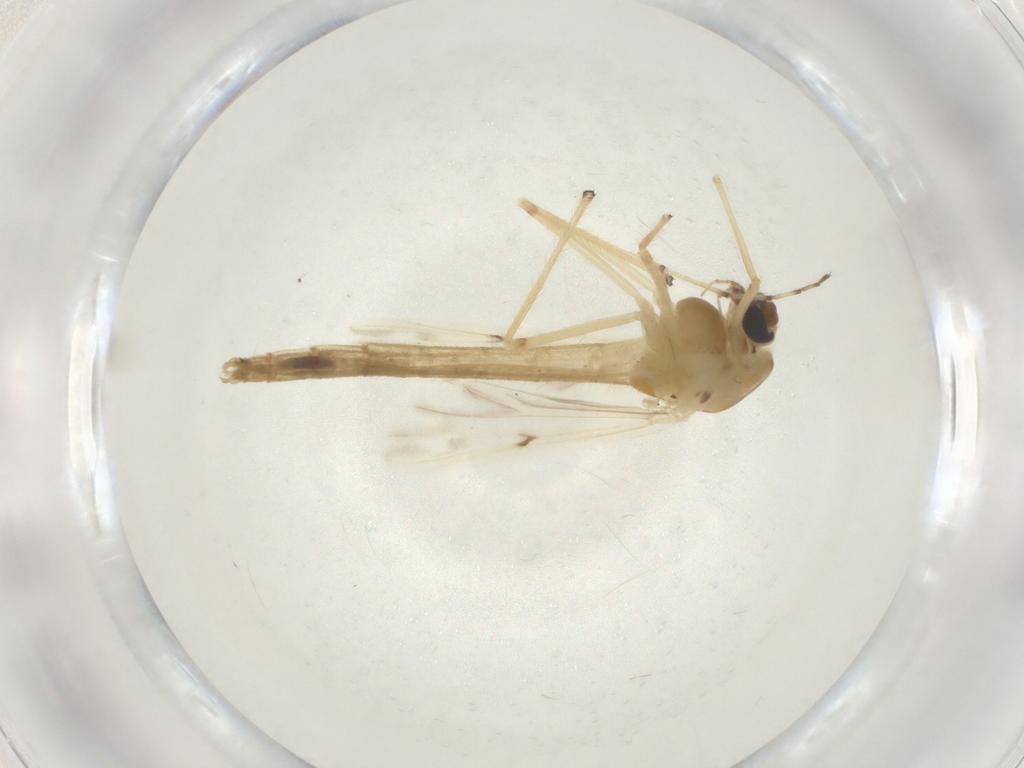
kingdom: Animalia
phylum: Arthropoda
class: Insecta
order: Diptera
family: Chironomidae
